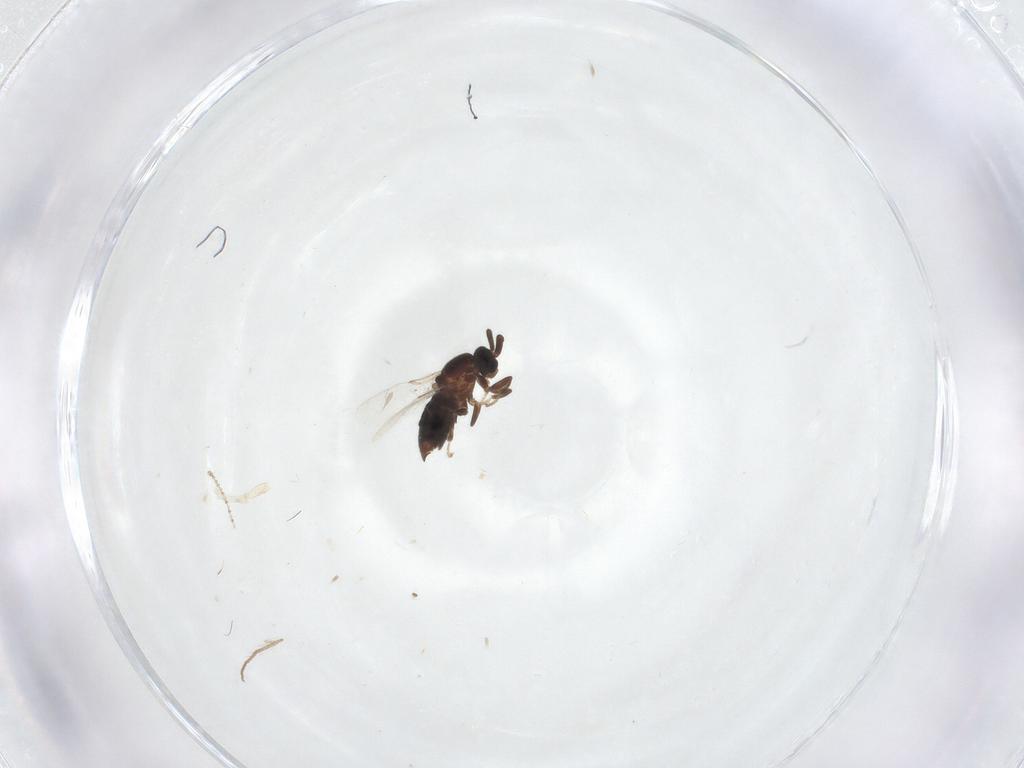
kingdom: Animalia
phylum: Arthropoda
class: Insecta
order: Diptera
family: Scatopsidae
